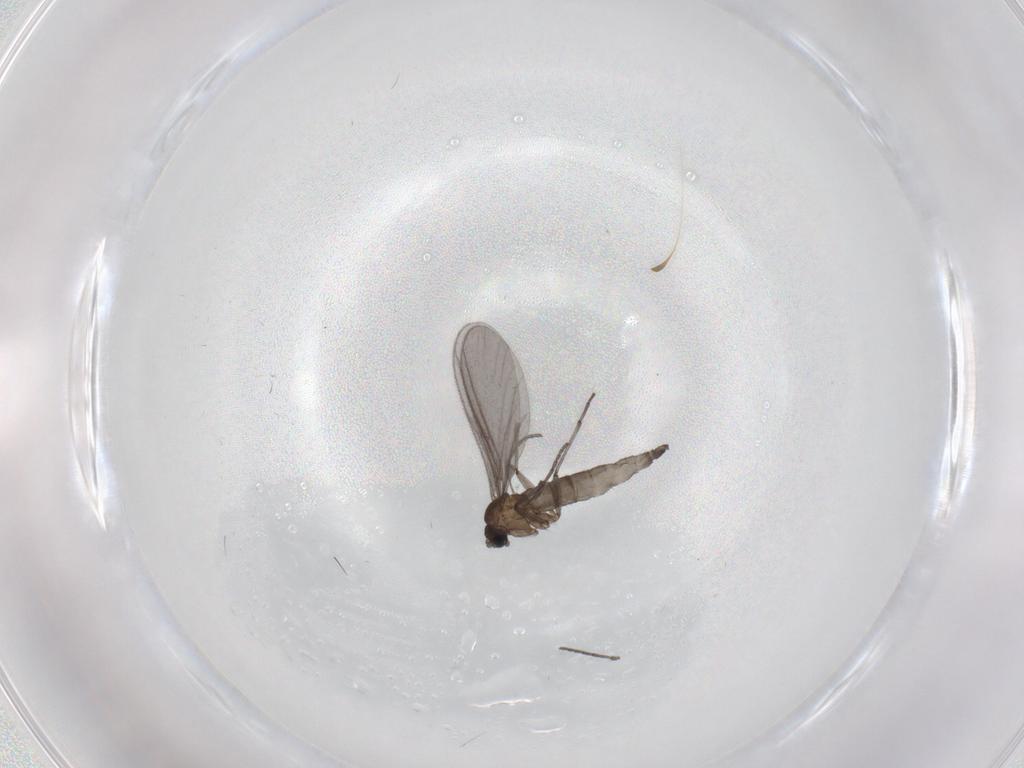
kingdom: Animalia
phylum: Arthropoda
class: Insecta
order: Diptera
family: Sciaridae
